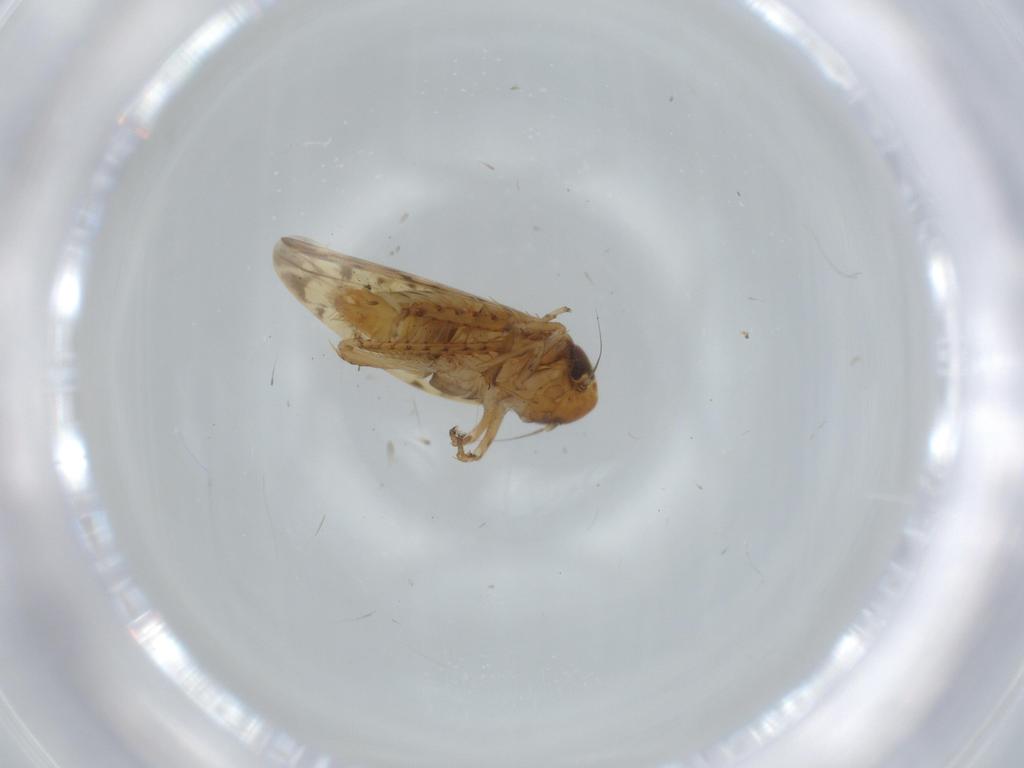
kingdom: Animalia
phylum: Arthropoda
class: Insecta
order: Hemiptera
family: Cicadellidae
